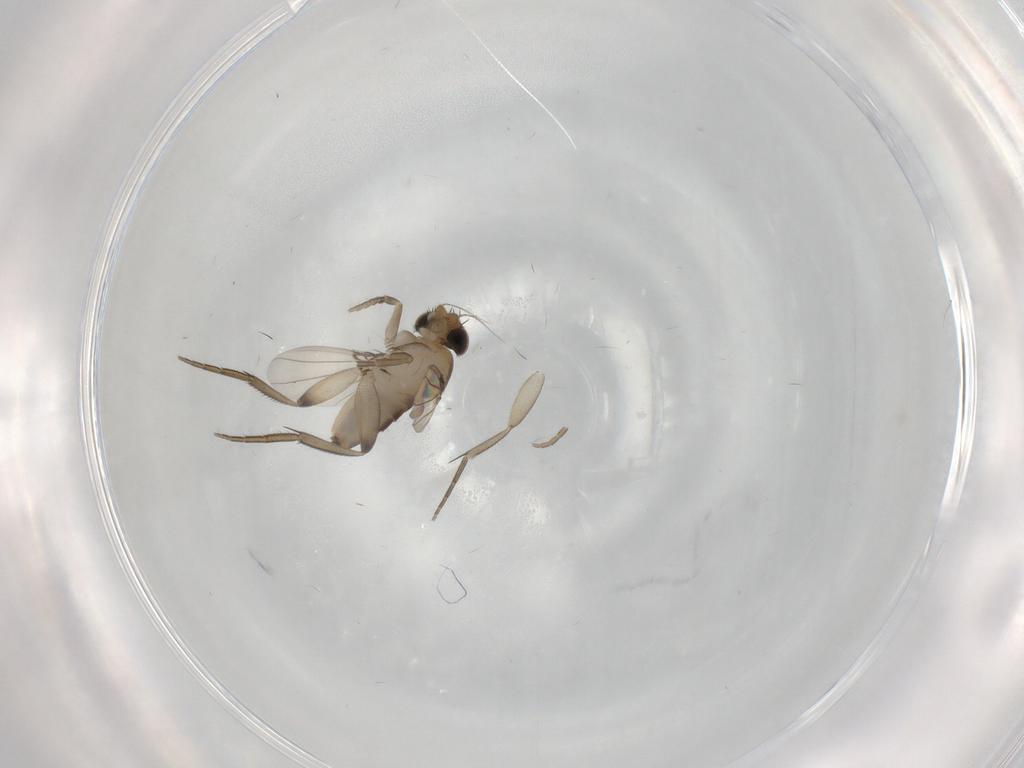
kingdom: Animalia
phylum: Arthropoda
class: Insecta
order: Diptera
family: Phoridae
